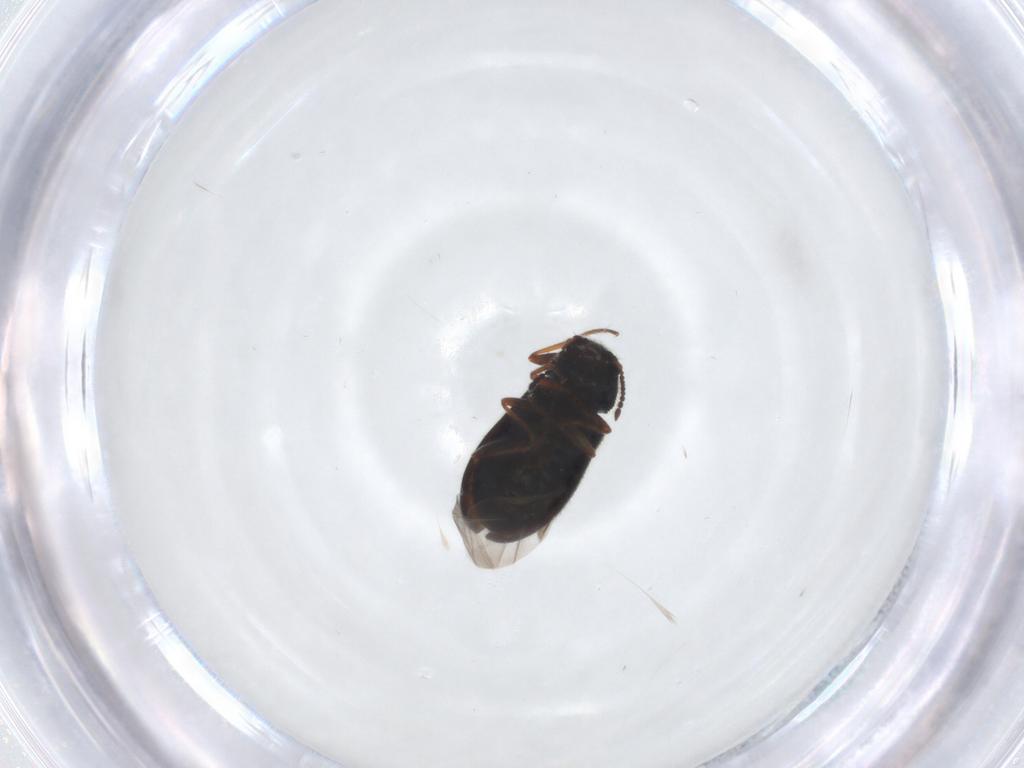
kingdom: Animalia
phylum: Arthropoda
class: Insecta
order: Coleoptera
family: Melyridae
